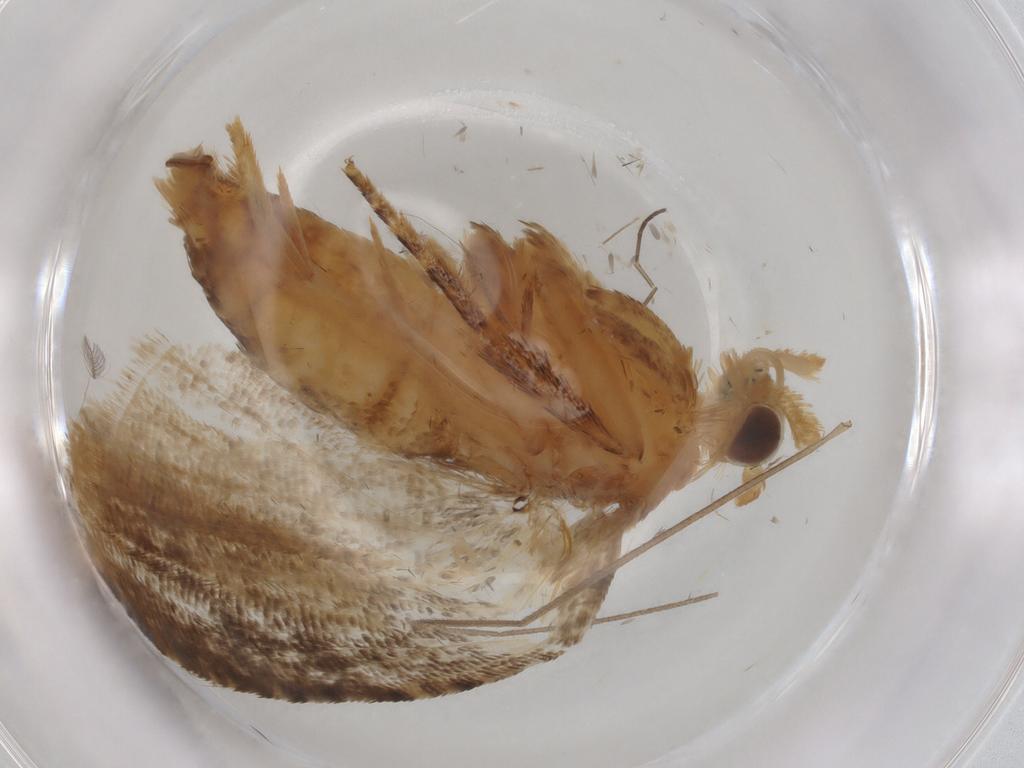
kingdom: Animalia
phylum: Arthropoda
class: Insecta
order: Lepidoptera
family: Tortricidae
